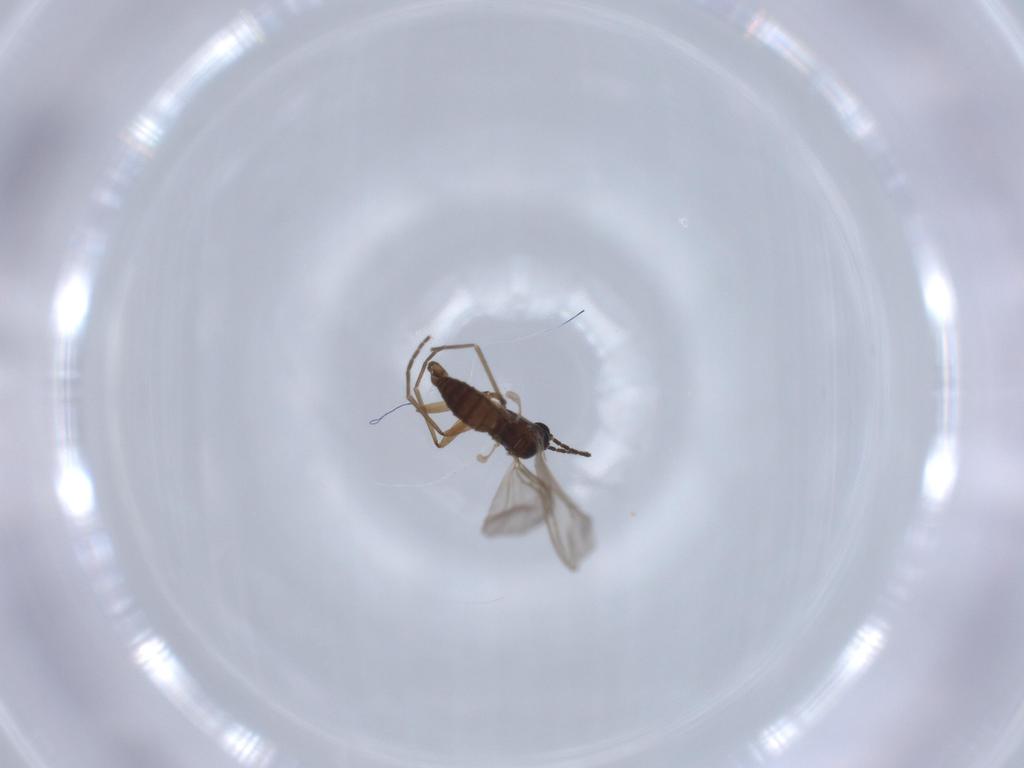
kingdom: Animalia
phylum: Arthropoda
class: Insecta
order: Diptera
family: Syrphidae
